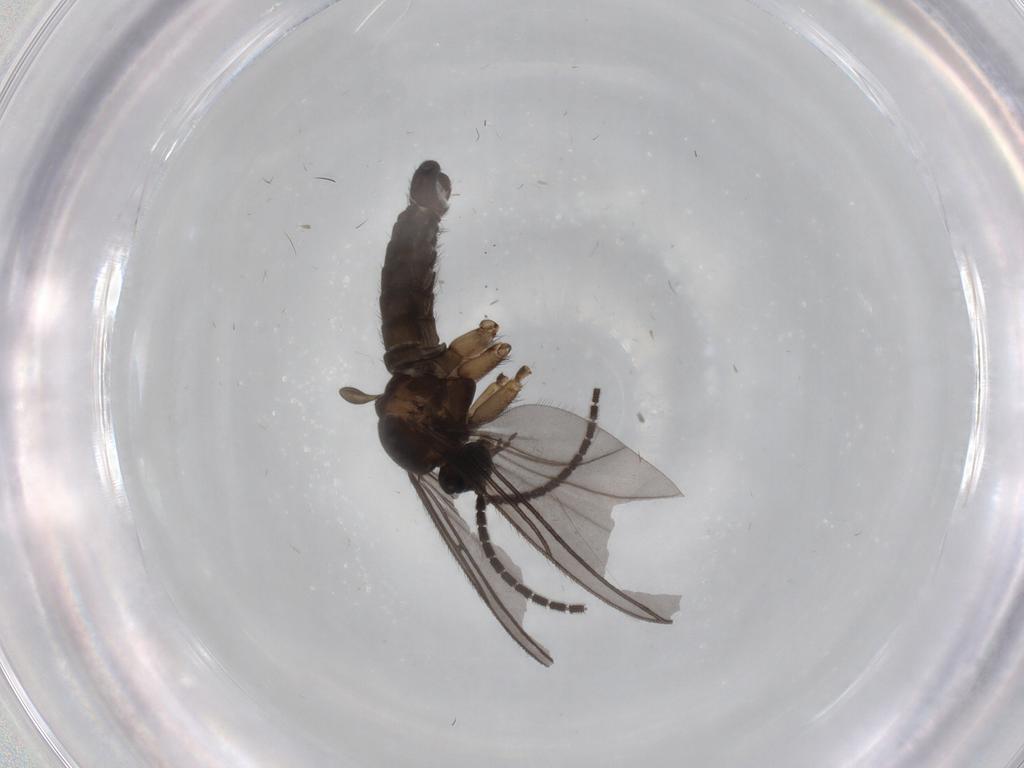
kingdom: Animalia
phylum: Arthropoda
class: Insecta
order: Diptera
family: Sciaridae
